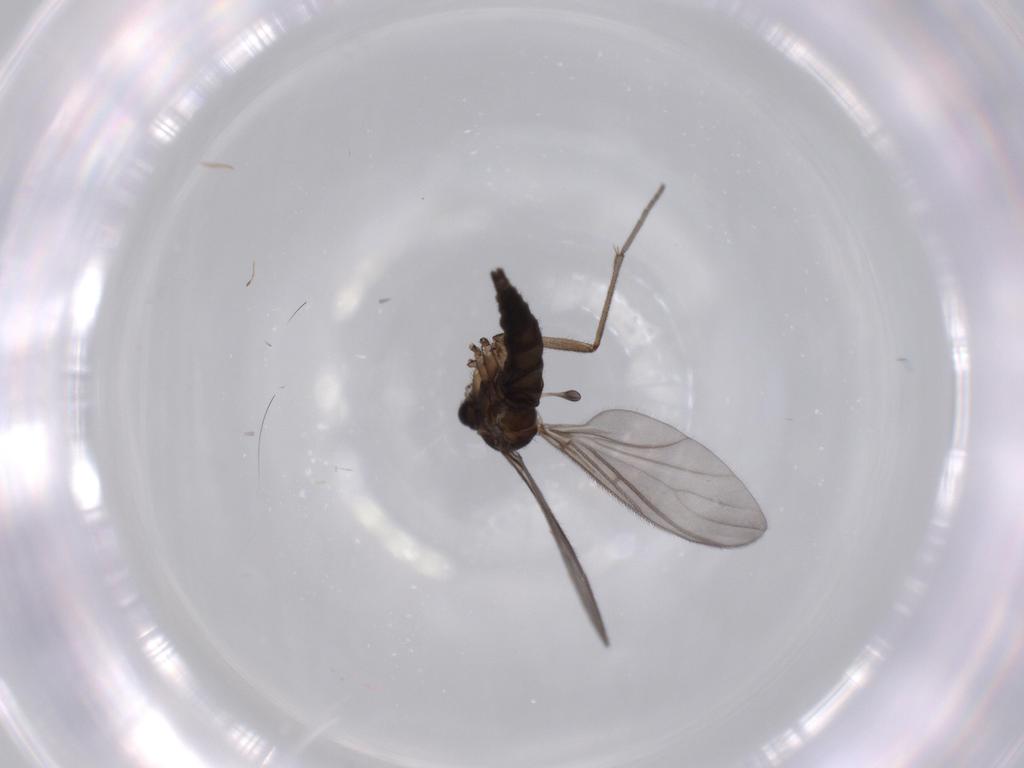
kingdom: Animalia
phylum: Arthropoda
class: Insecta
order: Diptera
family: Sciaridae
